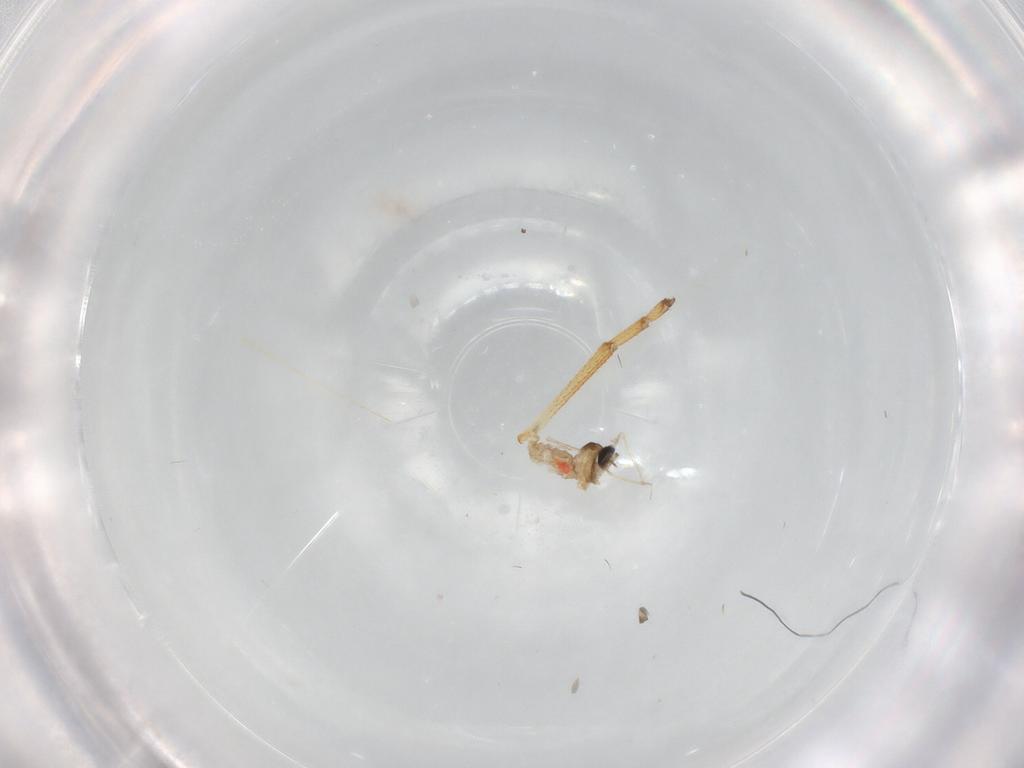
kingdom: Animalia
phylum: Arthropoda
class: Insecta
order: Diptera
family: Cecidomyiidae
